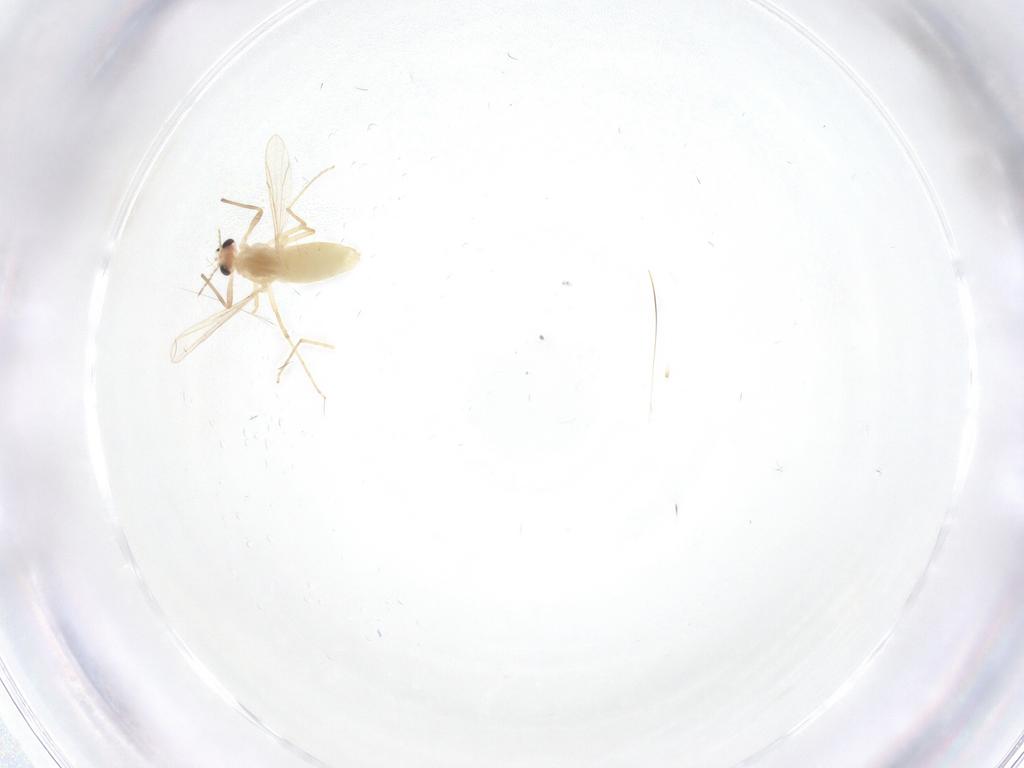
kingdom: Animalia
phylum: Arthropoda
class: Insecta
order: Diptera
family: Chironomidae
